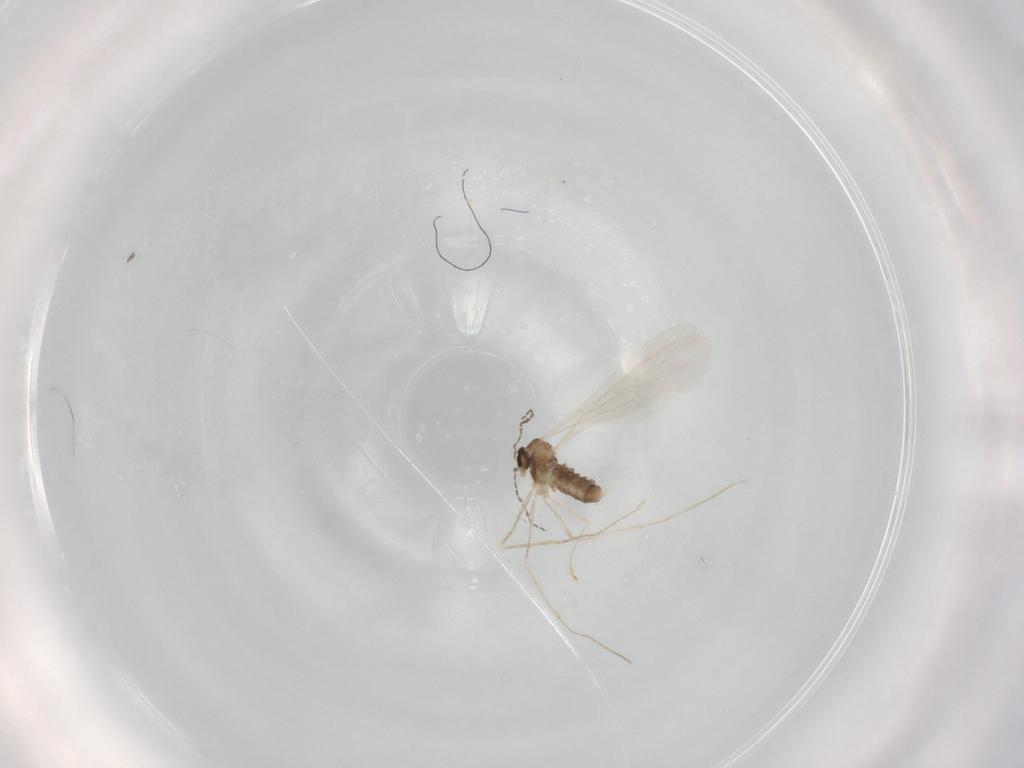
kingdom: Animalia
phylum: Arthropoda
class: Insecta
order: Diptera
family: Cecidomyiidae
